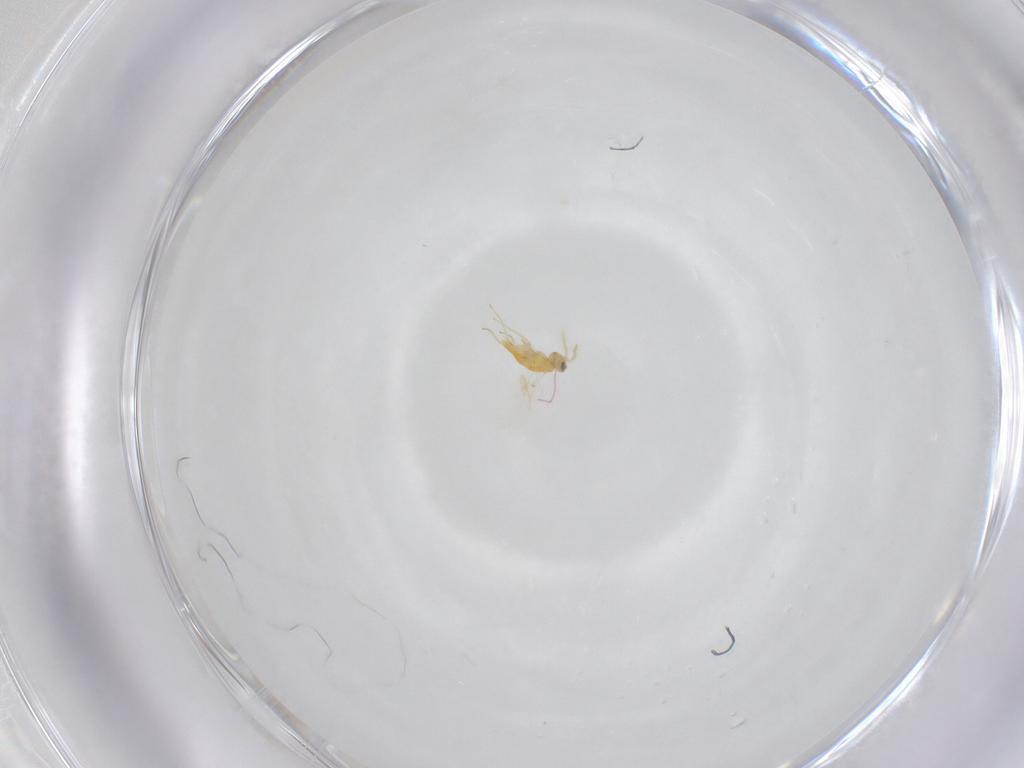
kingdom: Animalia
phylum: Arthropoda
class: Insecta
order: Hymenoptera
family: Aphelinidae
